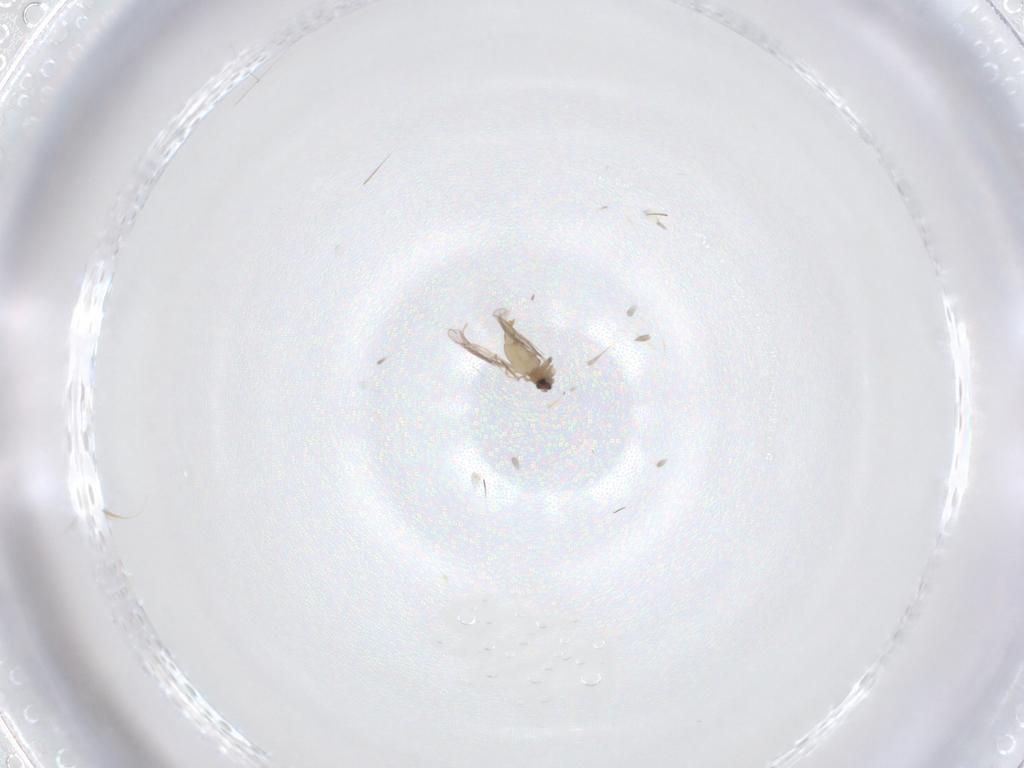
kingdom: Animalia
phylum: Arthropoda
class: Insecta
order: Diptera
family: Cecidomyiidae
